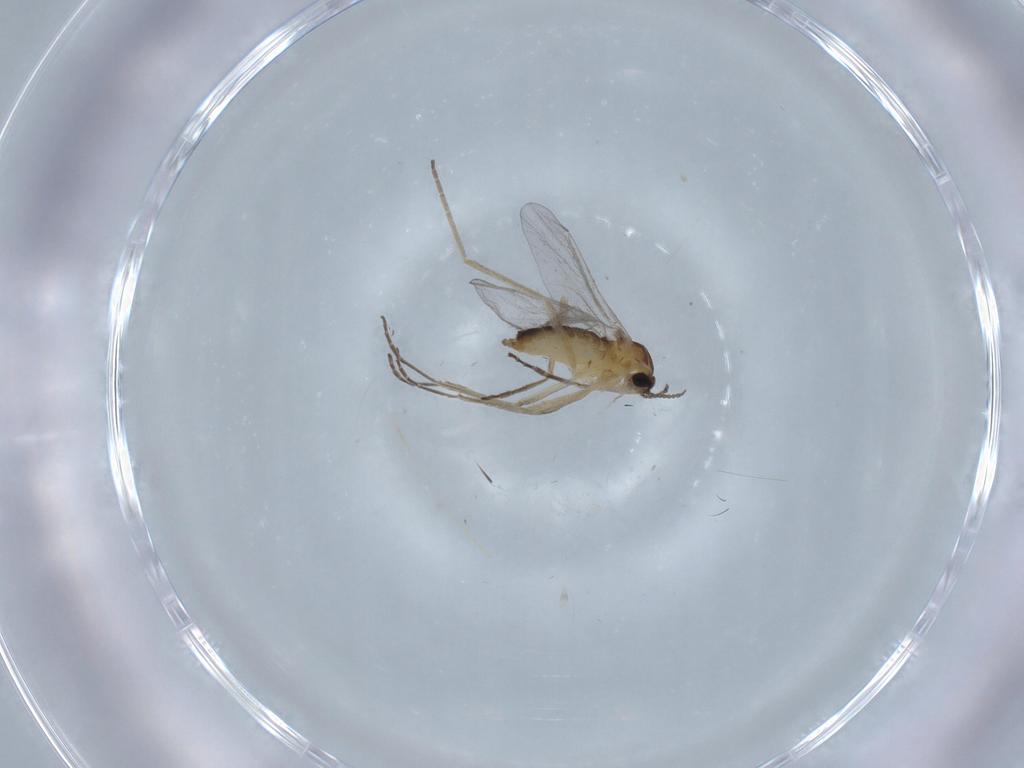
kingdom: Animalia
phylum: Arthropoda
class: Insecta
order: Diptera
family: Cecidomyiidae
